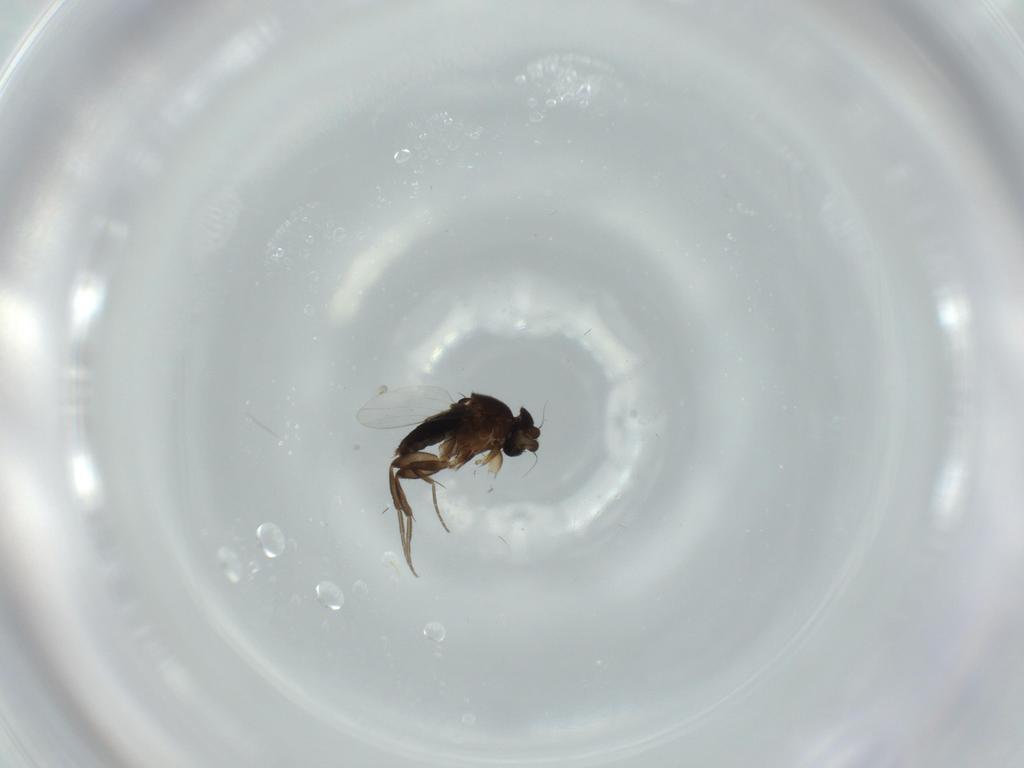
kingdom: Animalia
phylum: Arthropoda
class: Insecta
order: Diptera
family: Phoridae
